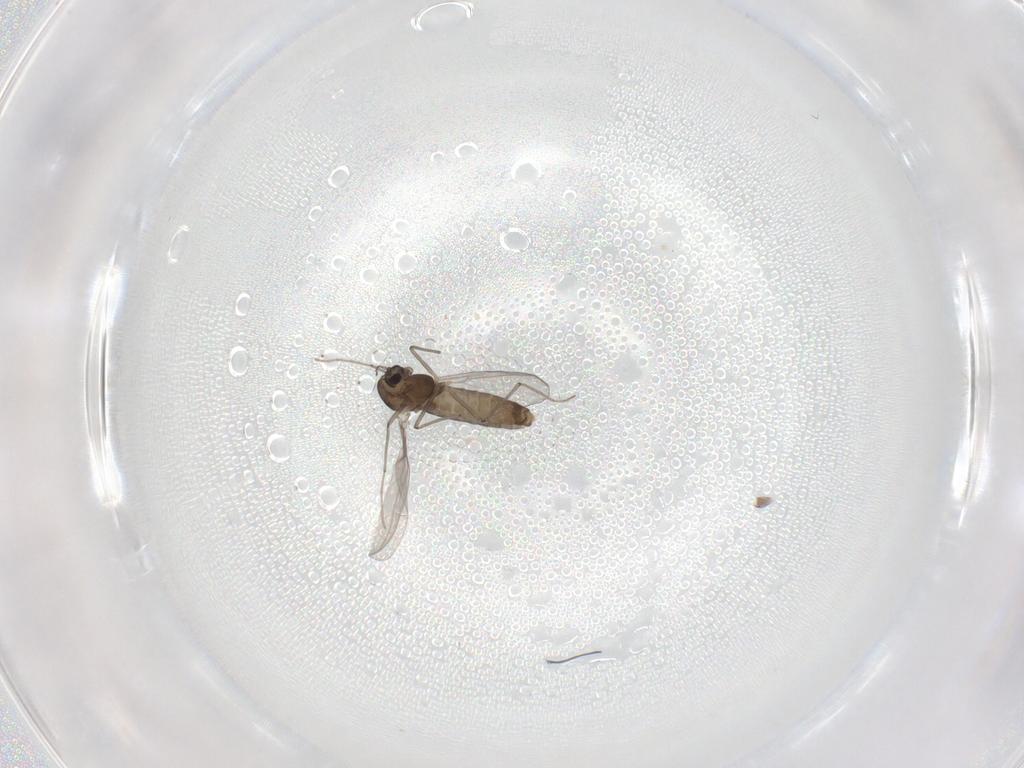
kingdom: Animalia
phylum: Arthropoda
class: Insecta
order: Diptera
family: Chironomidae
